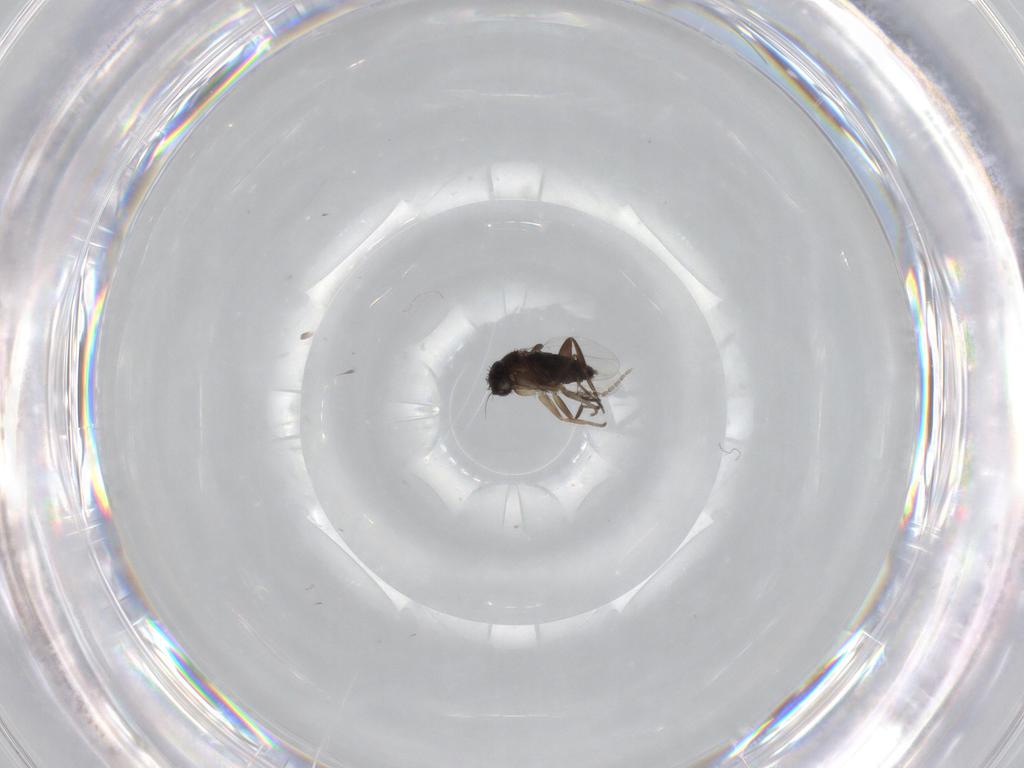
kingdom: Animalia
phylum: Arthropoda
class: Insecta
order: Diptera
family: Phoridae
